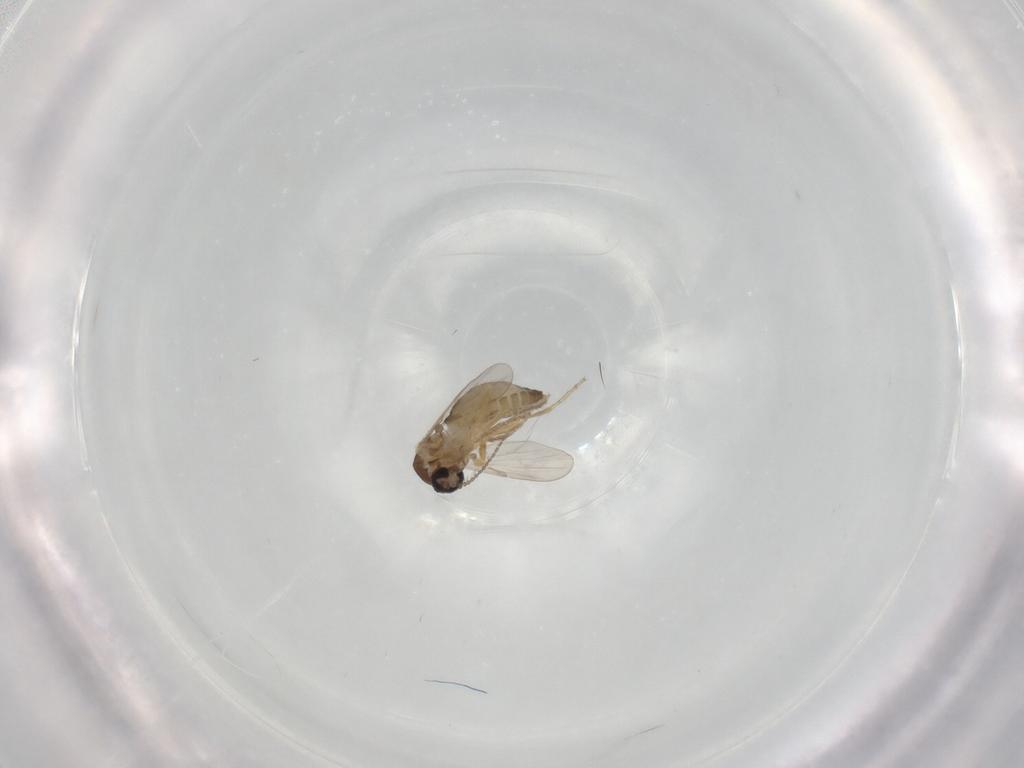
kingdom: Animalia
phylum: Arthropoda
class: Insecta
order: Diptera
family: Ceratopogonidae
